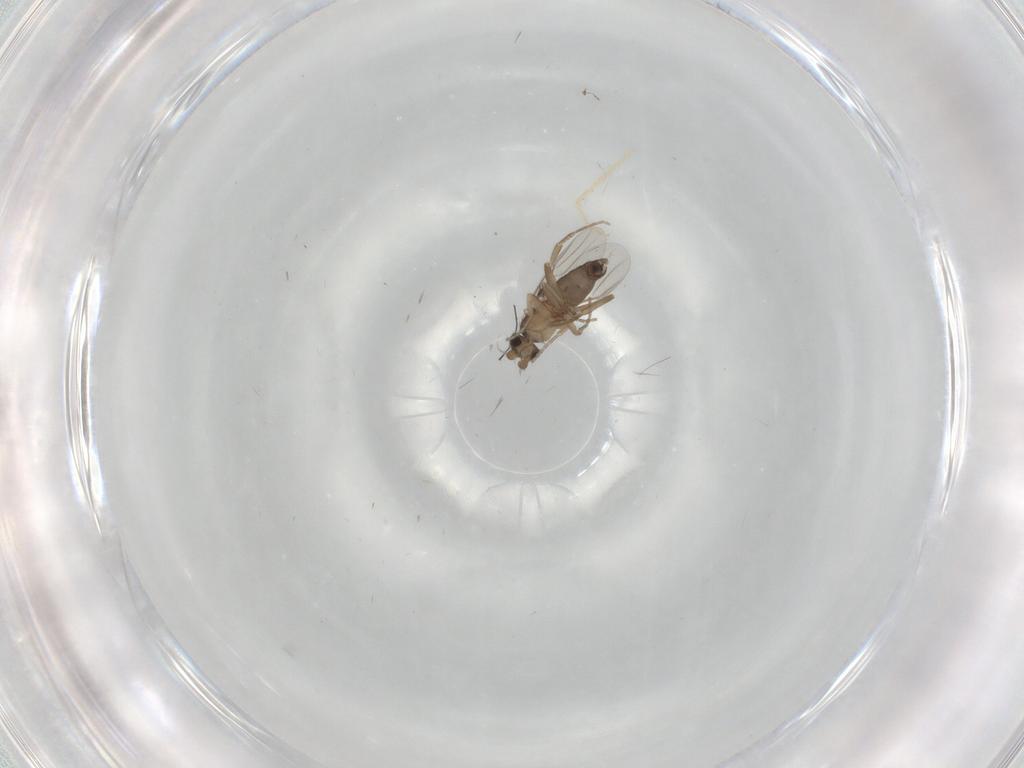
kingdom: Animalia
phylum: Arthropoda
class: Insecta
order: Diptera
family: Chironomidae
